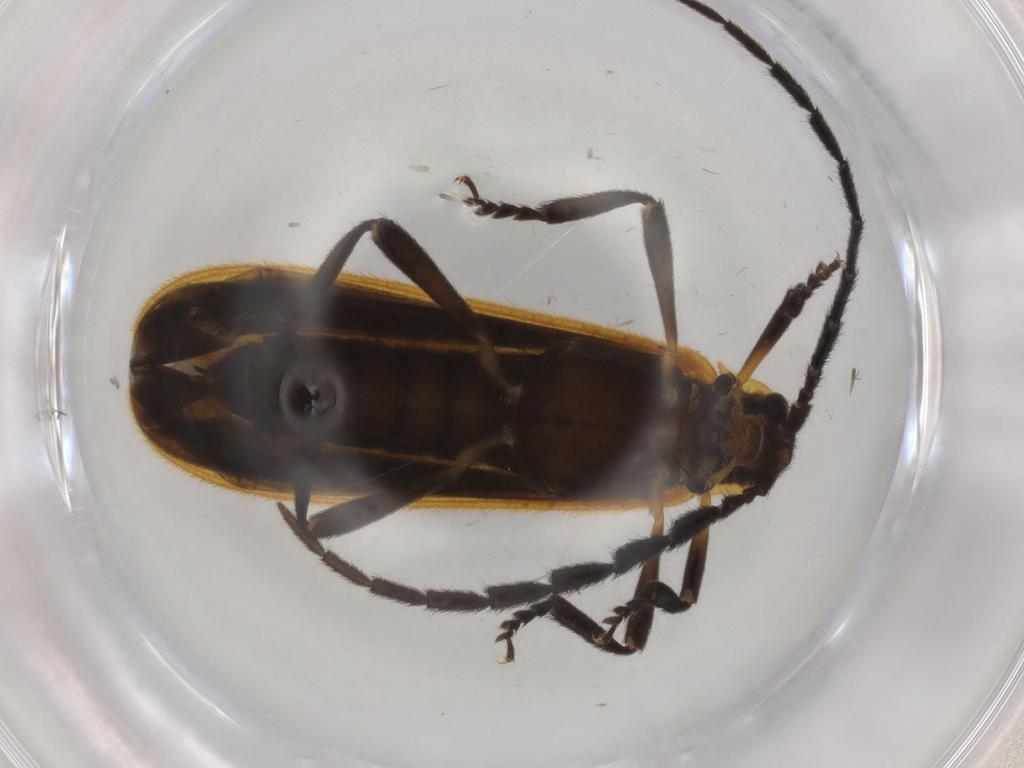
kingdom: Animalia
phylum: Arthropoda
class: Insecta
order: Coleoptera
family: Lycidae
